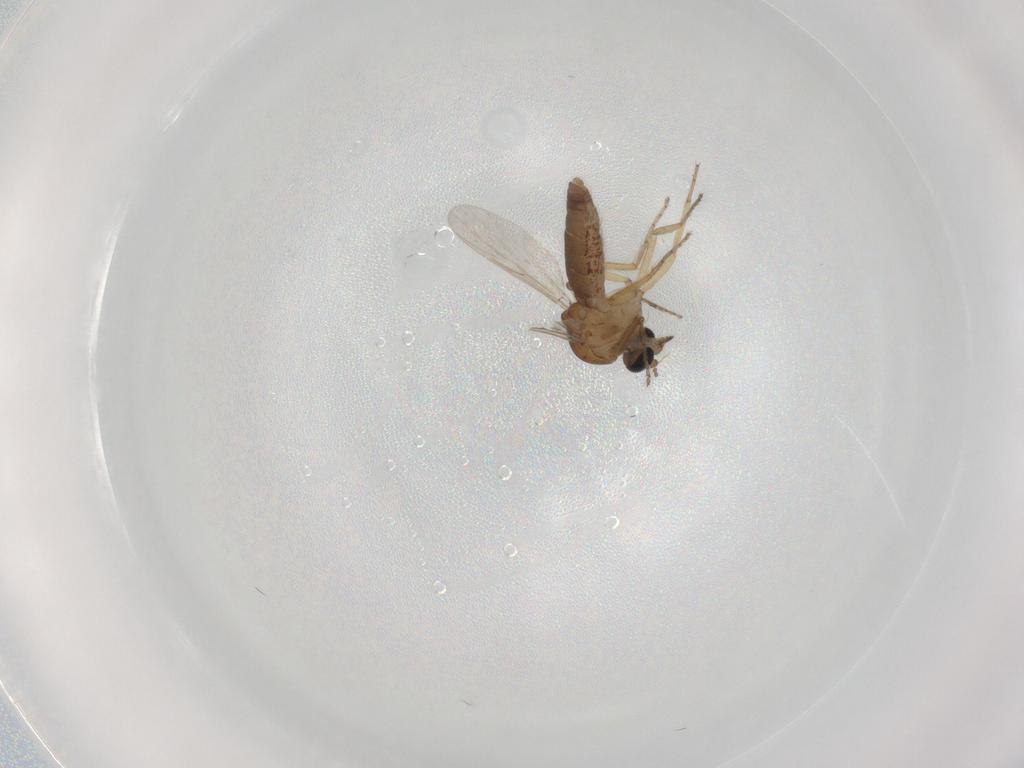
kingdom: Animalia
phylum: Arthropoda
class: Insecta
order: Diptera
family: Ceratopogonidae
